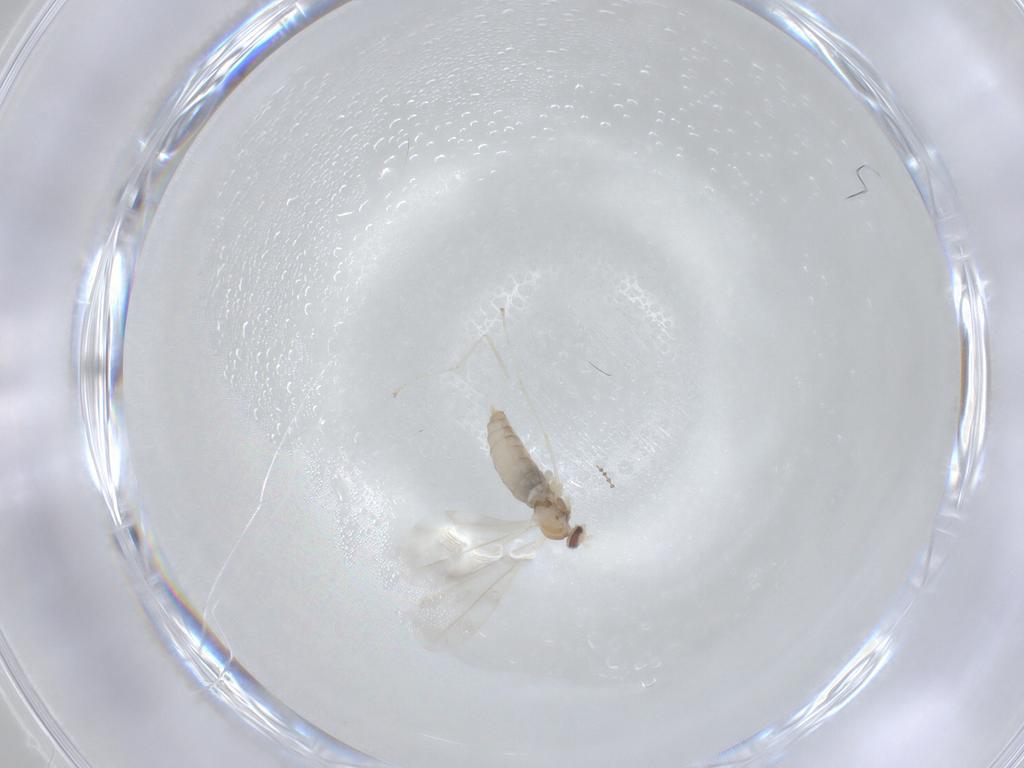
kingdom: Animalia
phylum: Arthropoda
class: Insecta
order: Diptera
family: Cecidomyiidae
